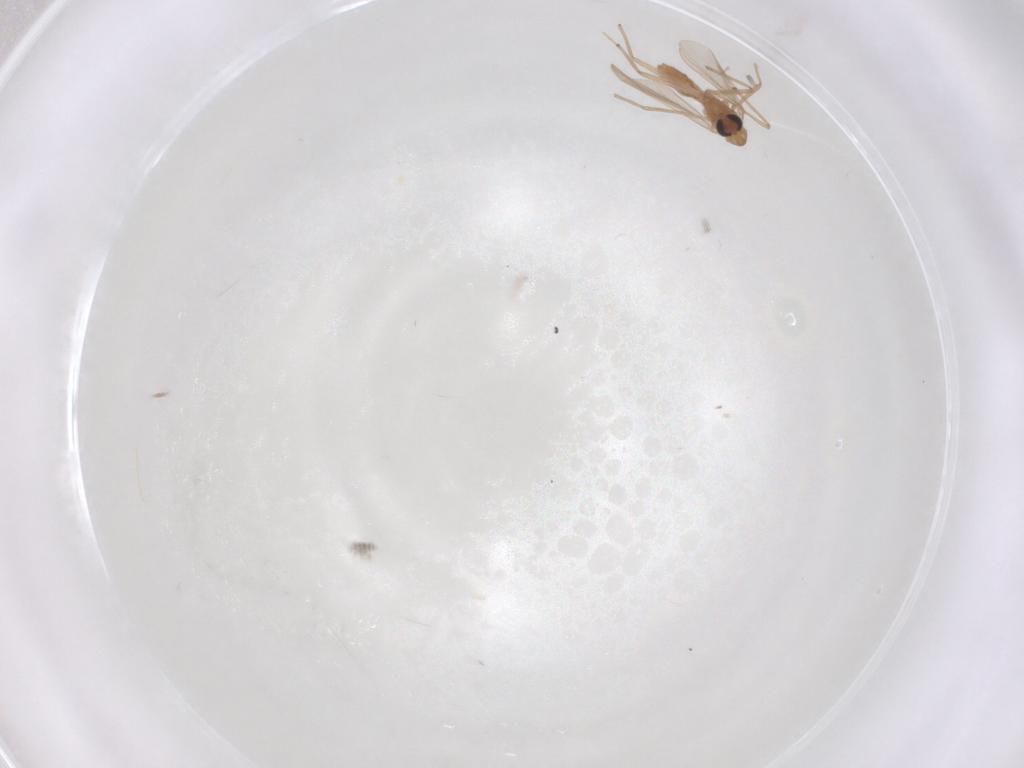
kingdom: Animalia
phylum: Arthropoda
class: Insecta
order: Diptera
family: Chironomidae
